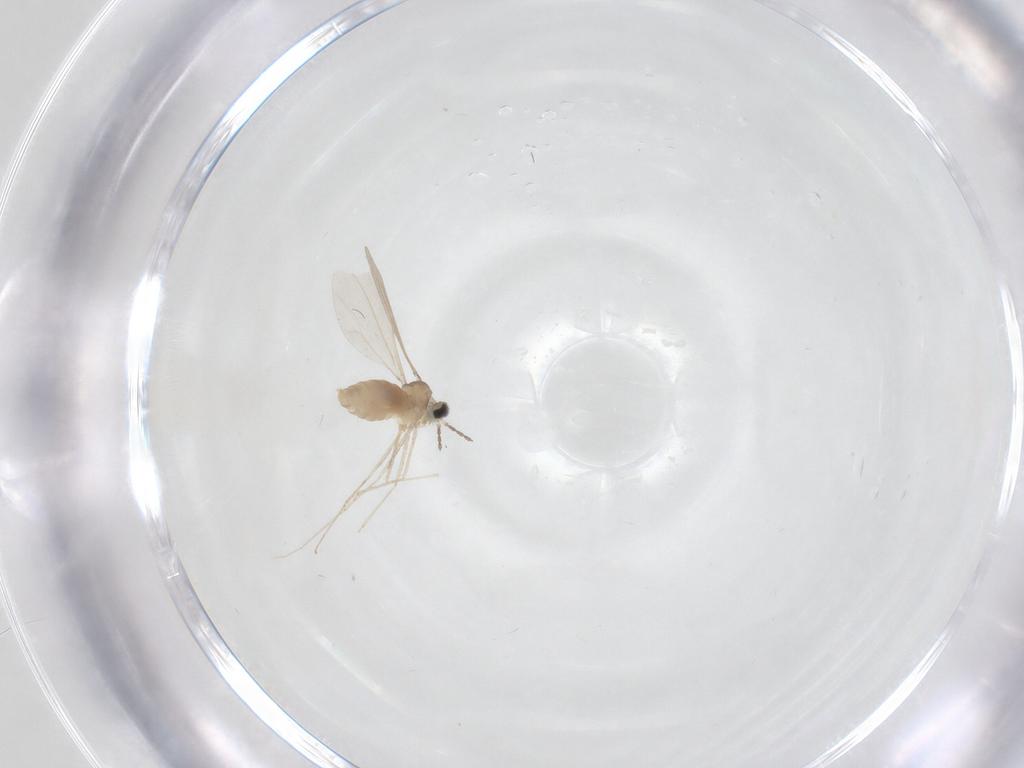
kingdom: Animalia
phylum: Arthropoda
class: Insecta
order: Diptera
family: Cecidomyiidae
